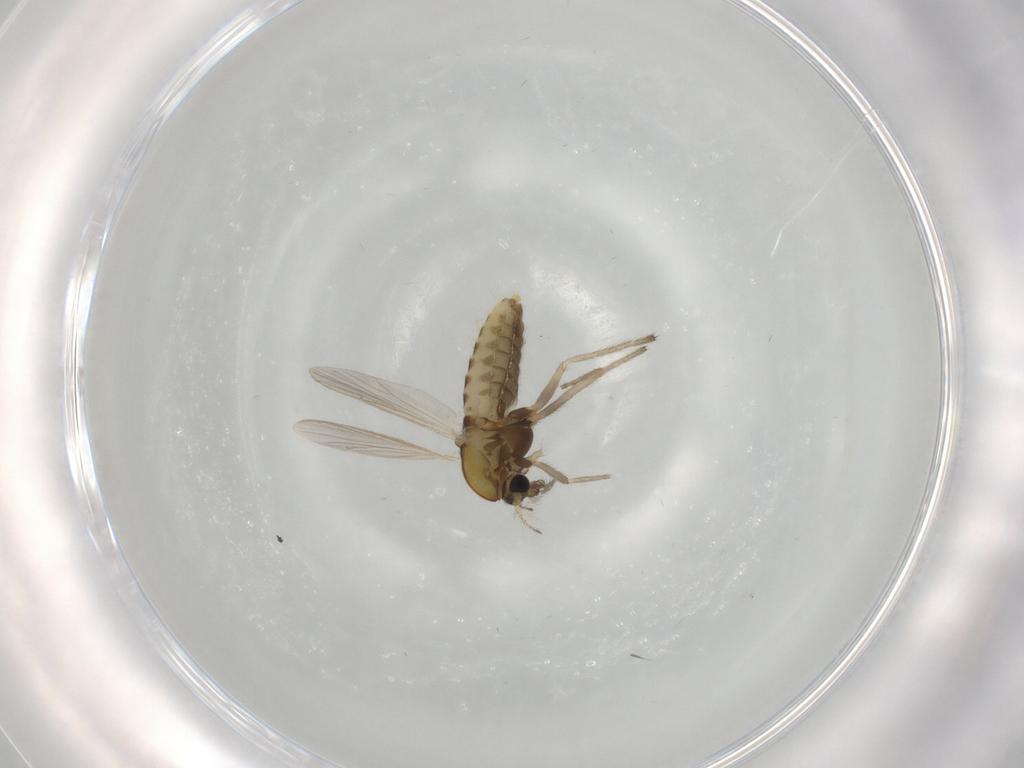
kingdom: Animalia
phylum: Arthropoda
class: Insecta
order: Diptera
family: Chironomidae
